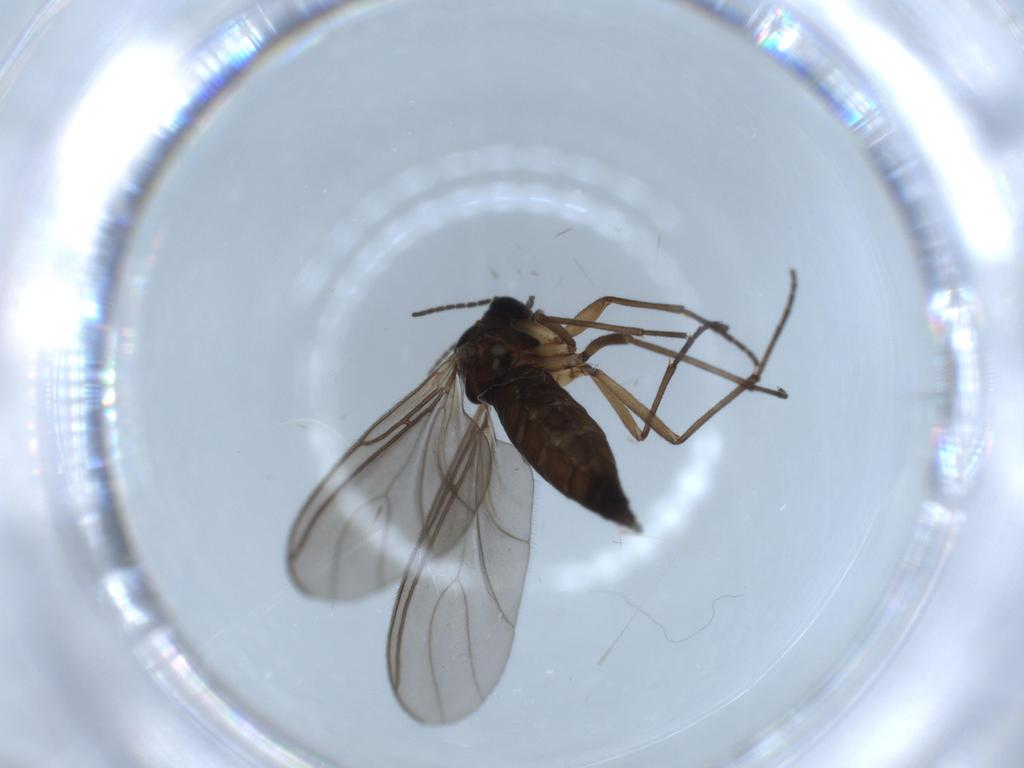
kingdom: Animalia
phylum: Arthropoda
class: Insecta
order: Diptera
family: Sciaridae
